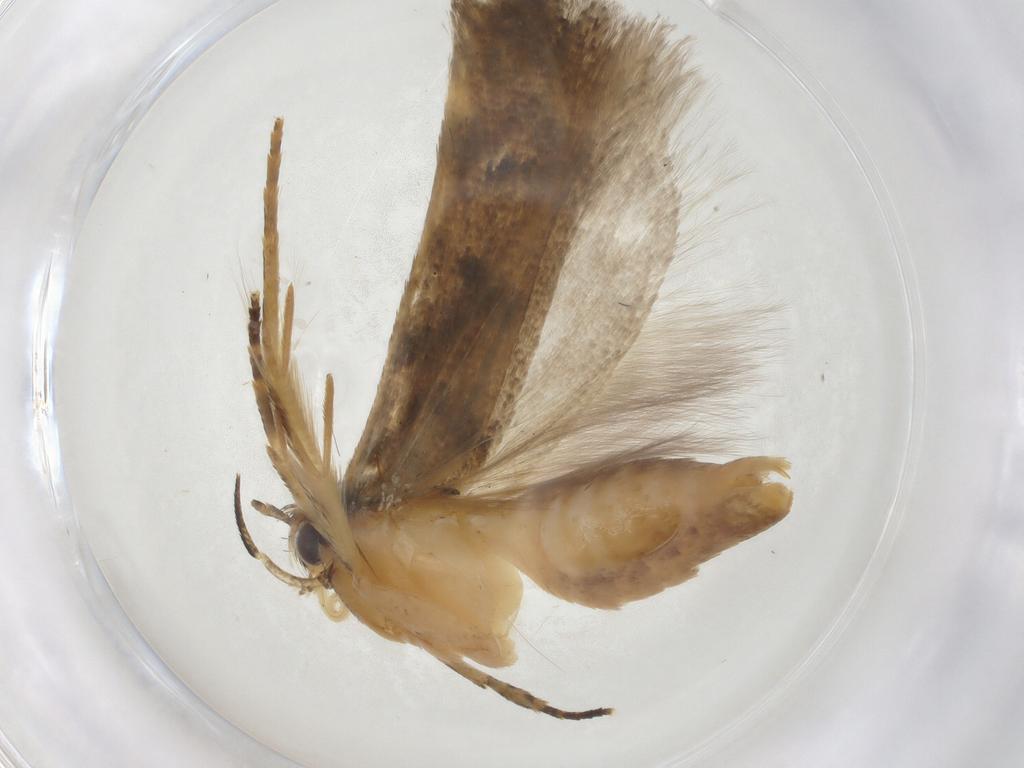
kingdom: Animalia
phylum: Arthropoda
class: Insecta
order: Lepidoptera
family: Gelechiidae
